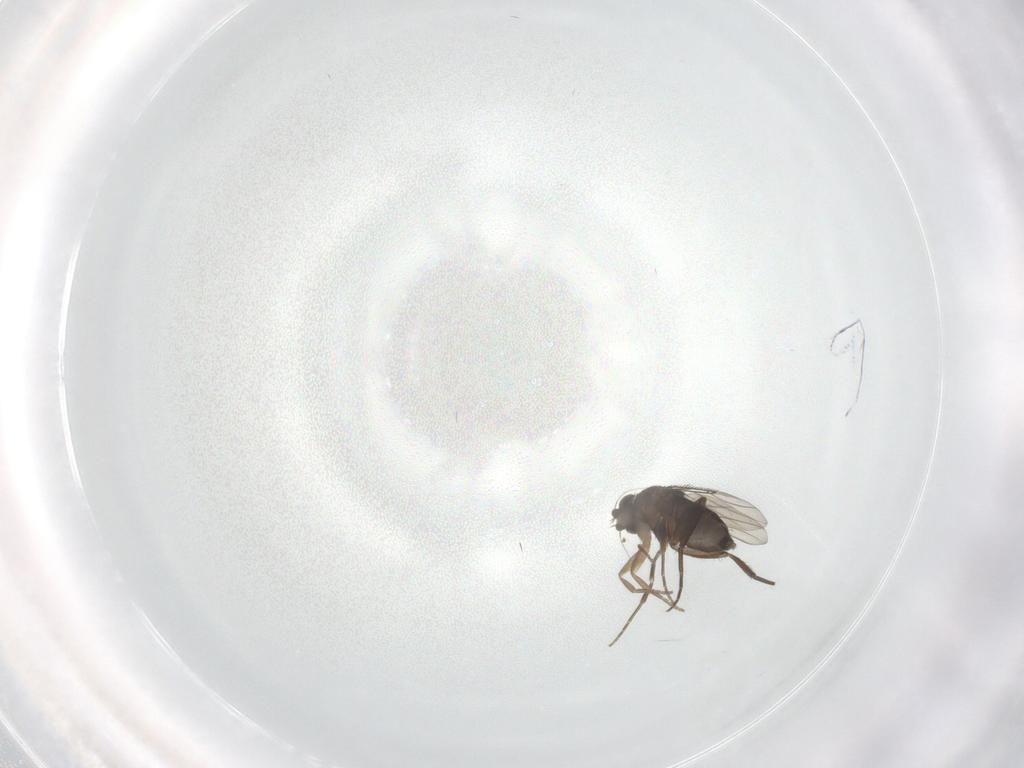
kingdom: Animalia
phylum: Arthropoda
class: Insecta
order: Diptera
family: Phoridae
